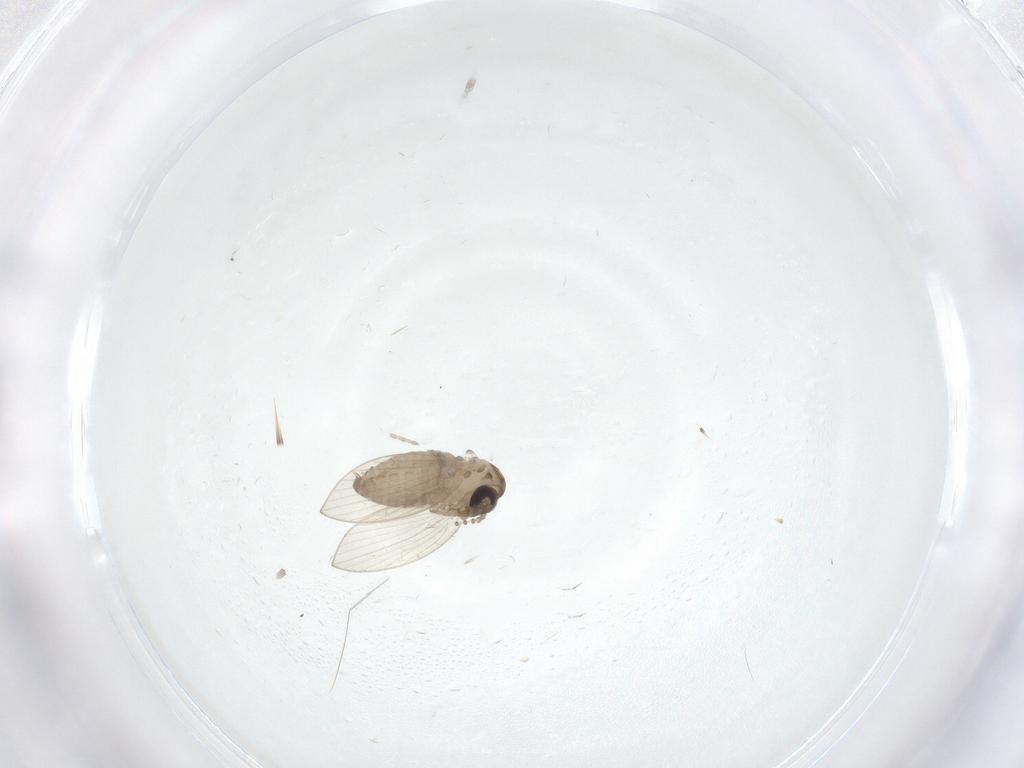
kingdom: Animalia
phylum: Arthropoda
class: Insecta
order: Diptera
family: Psychodidae
